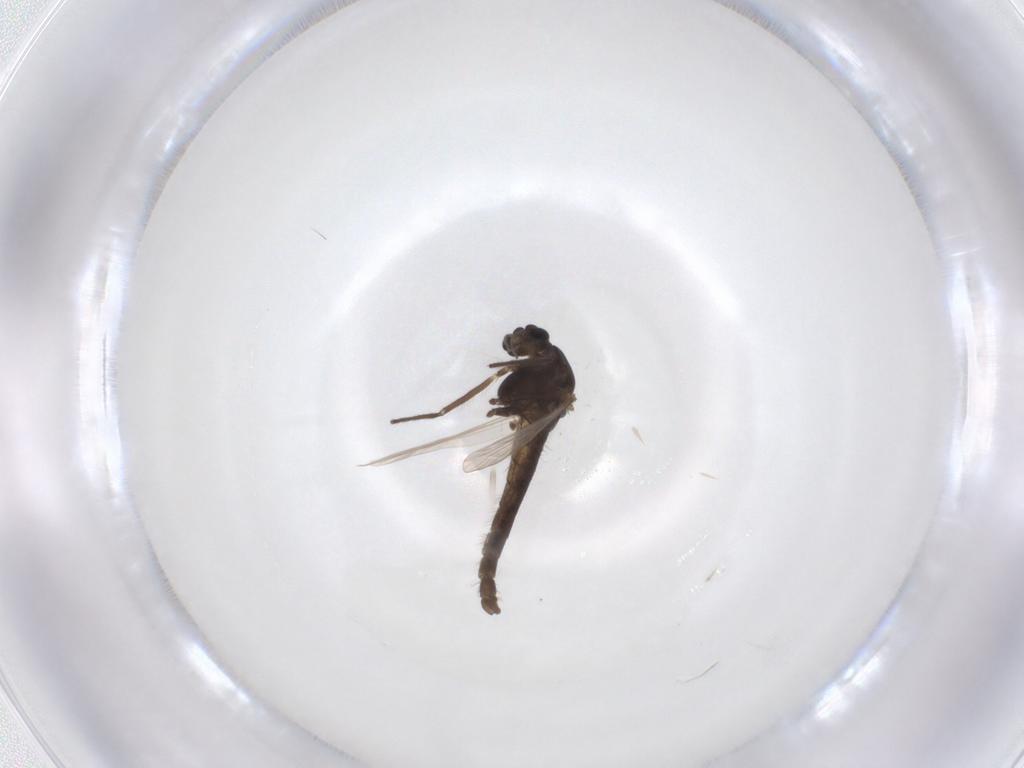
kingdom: Animalia
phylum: Arthropoda
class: Insecta
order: Diptera
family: Chironomidae
